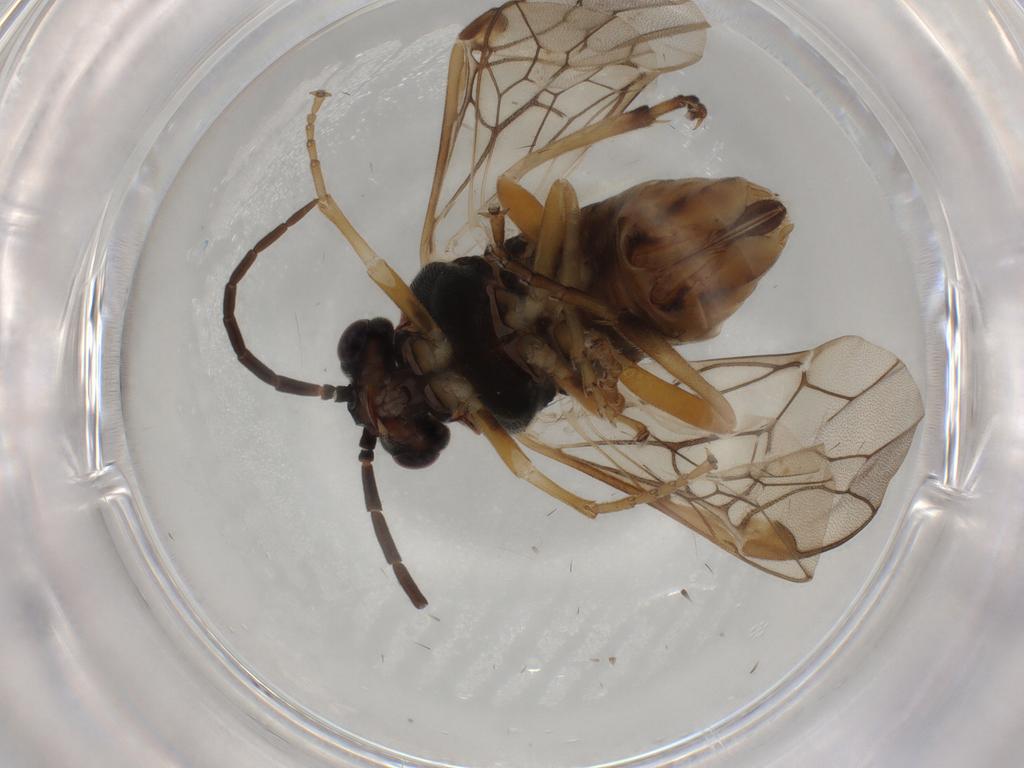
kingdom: Animalia
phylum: Arthropoda
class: Insecta
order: Hymenoptera
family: Tenthredinidae
